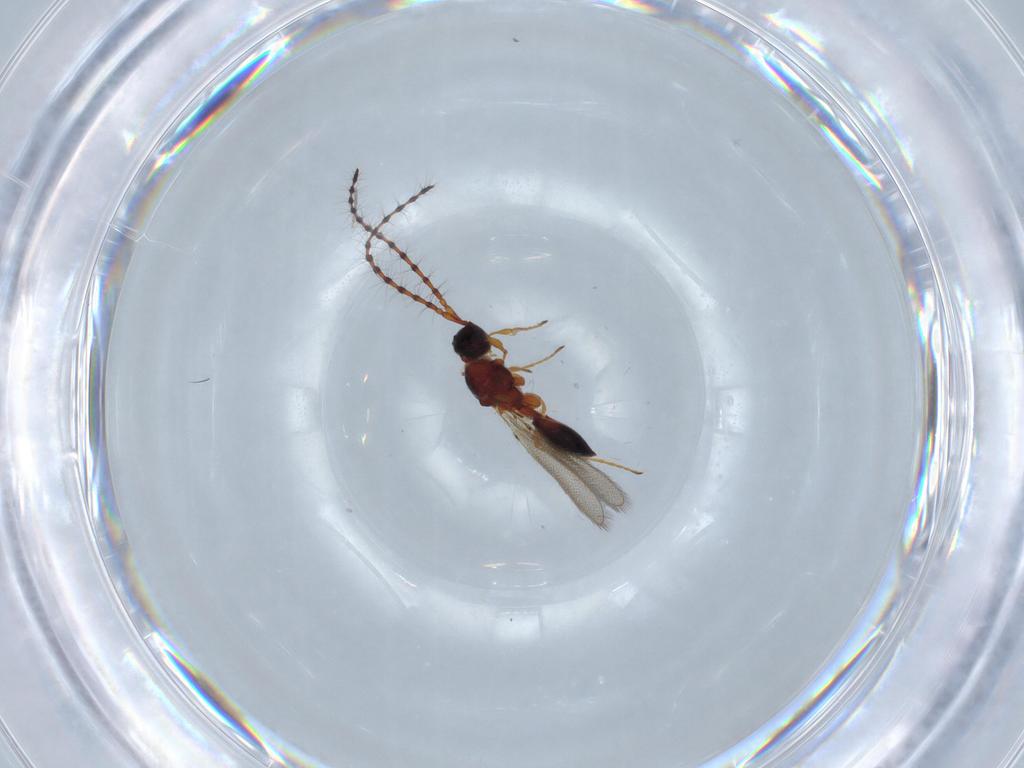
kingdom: Animalia
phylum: Arthropoda
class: Insecta
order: Hymenoptera
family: Diapriidae
